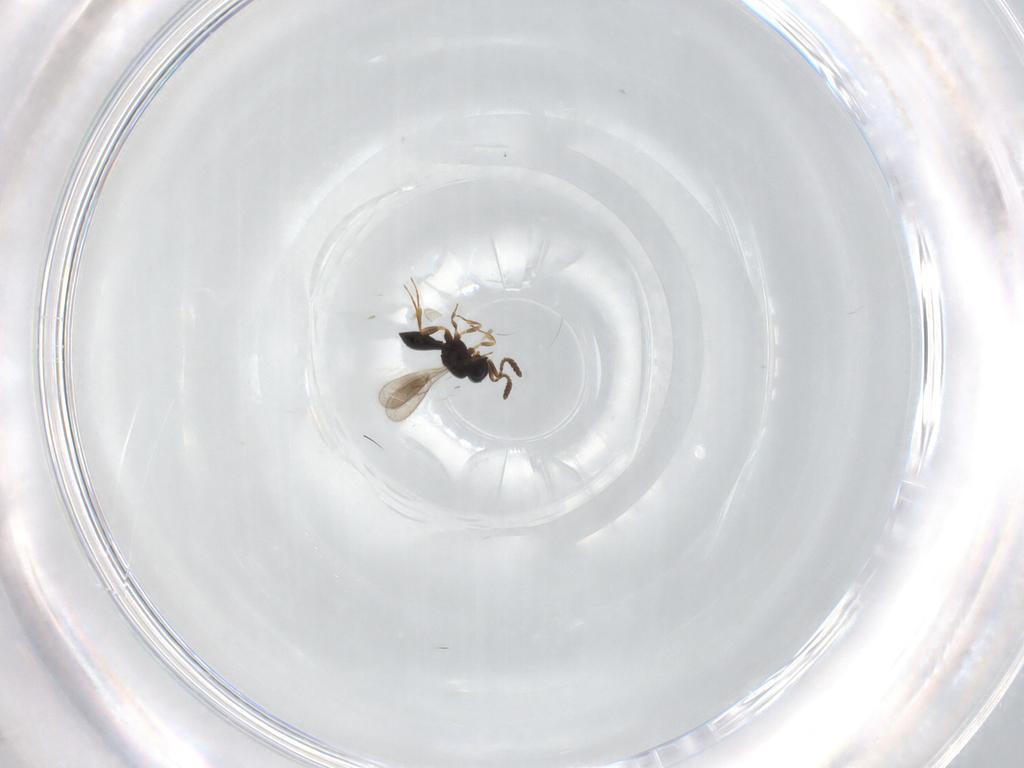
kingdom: Animalia
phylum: Arthropoda
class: Insecta
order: Hymenoptera
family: Scelionidae
